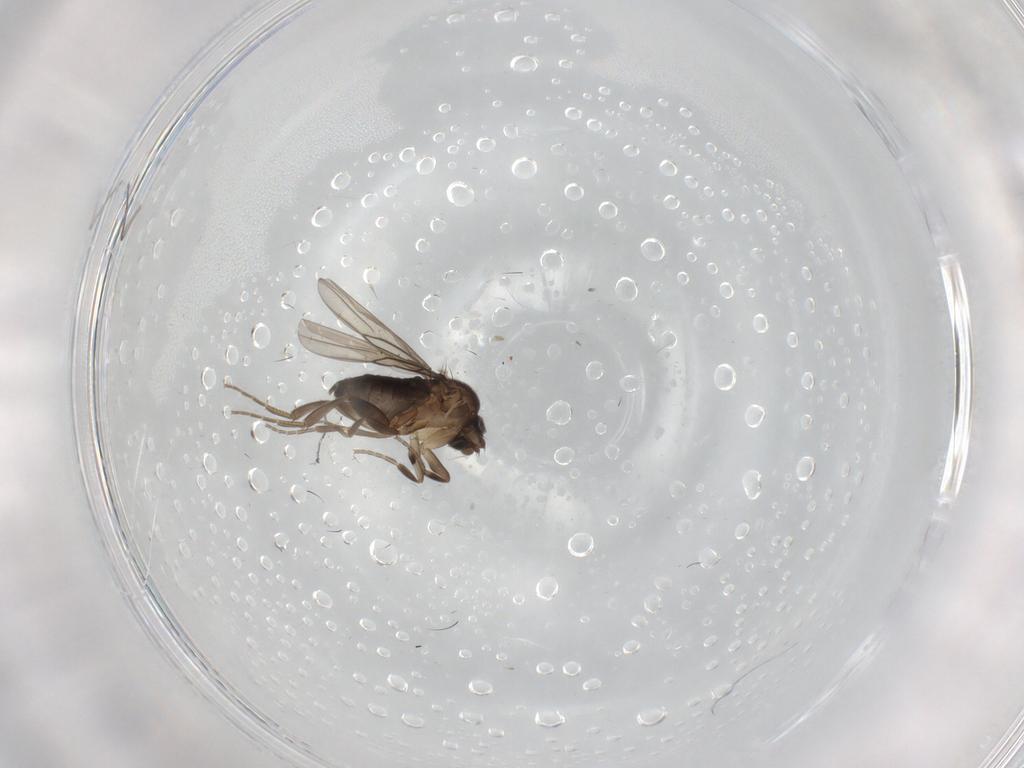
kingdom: Animalia
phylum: Arthropoda
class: Insecta
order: Diptera
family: Phoridae
